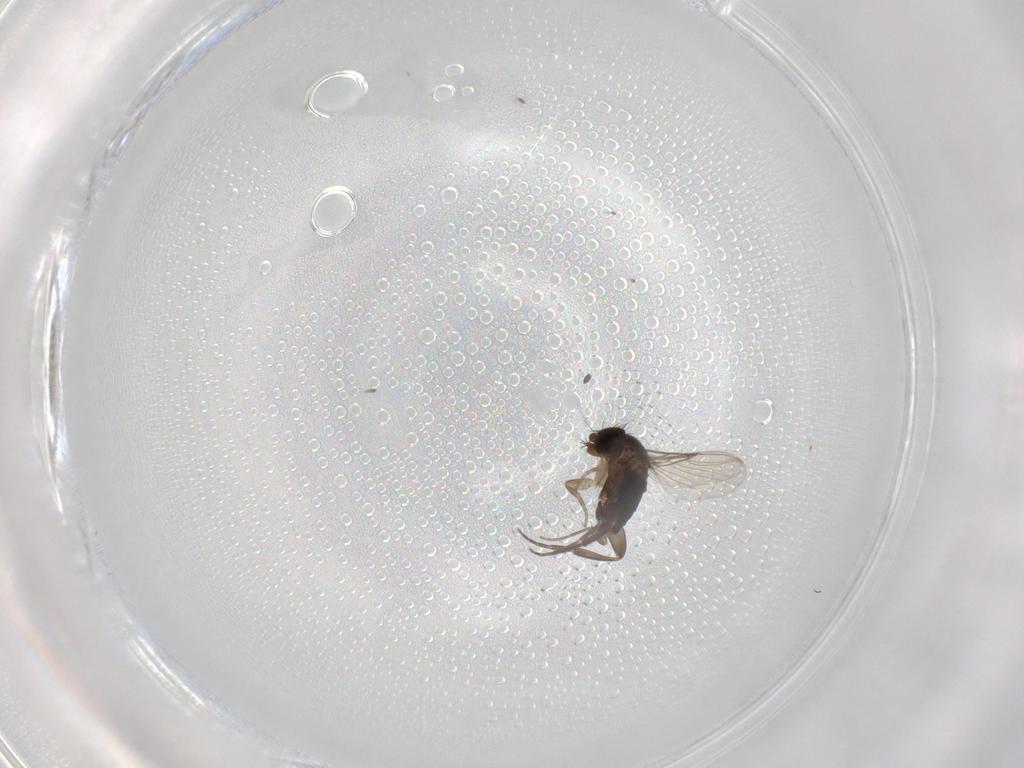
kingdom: Animalia
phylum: Arthropoda
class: Insecta
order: Diptera
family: Phoridae
